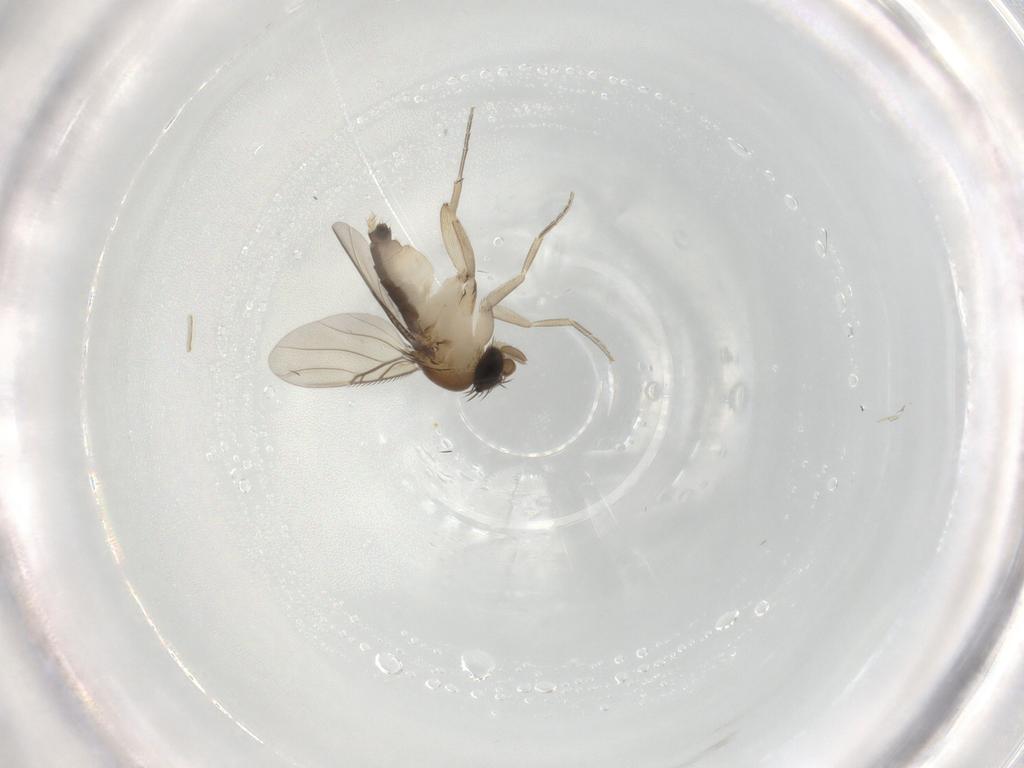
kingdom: Animalia
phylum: Arthropoda
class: Insecta
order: Diptera
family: Phoridae
